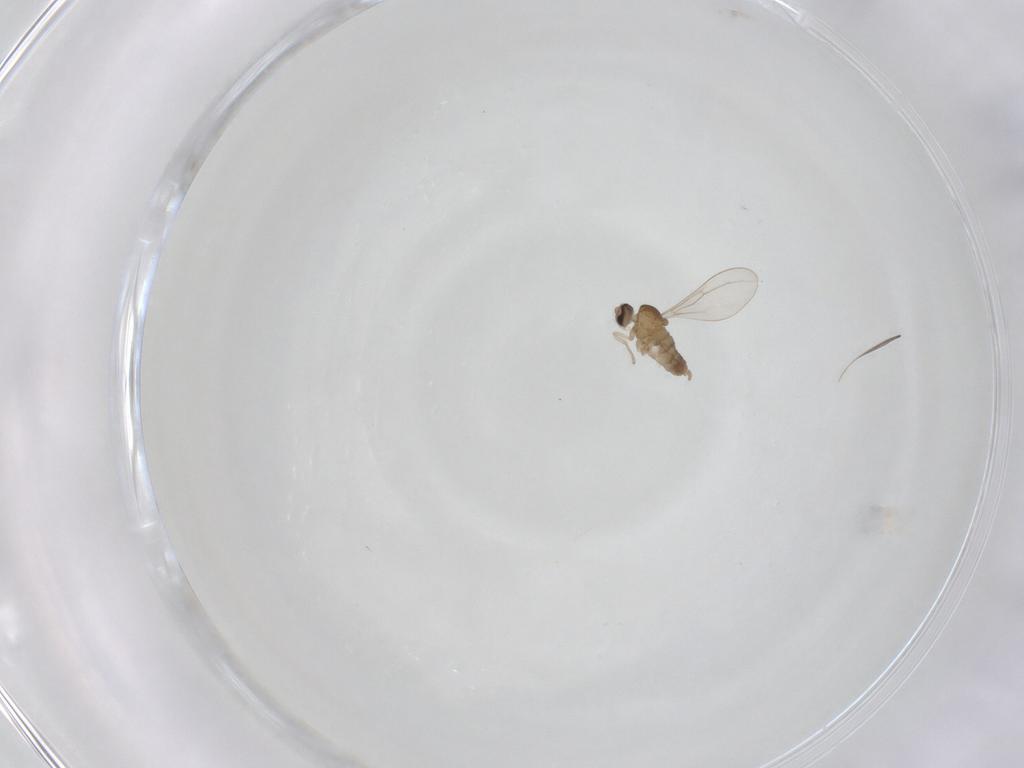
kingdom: Animalia
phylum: Arthropoda
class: Insecta
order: Diptera
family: Cecidomyiidae
